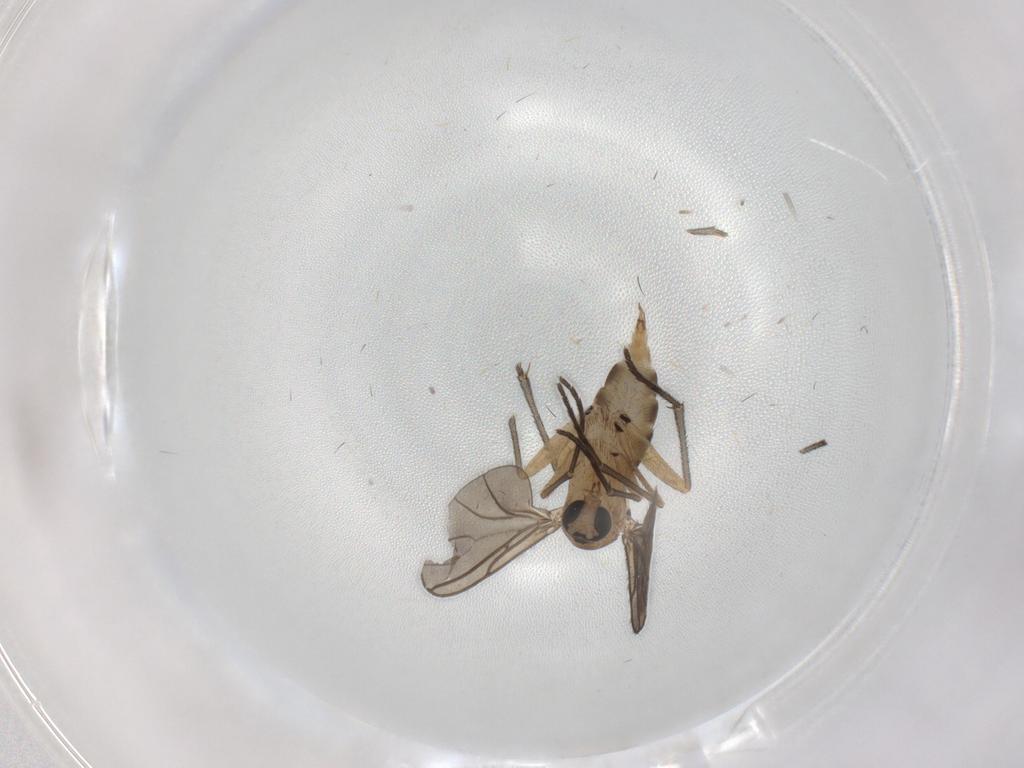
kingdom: Animalia
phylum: Arthropoda
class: Insecta
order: Diptera
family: Sciaridae
